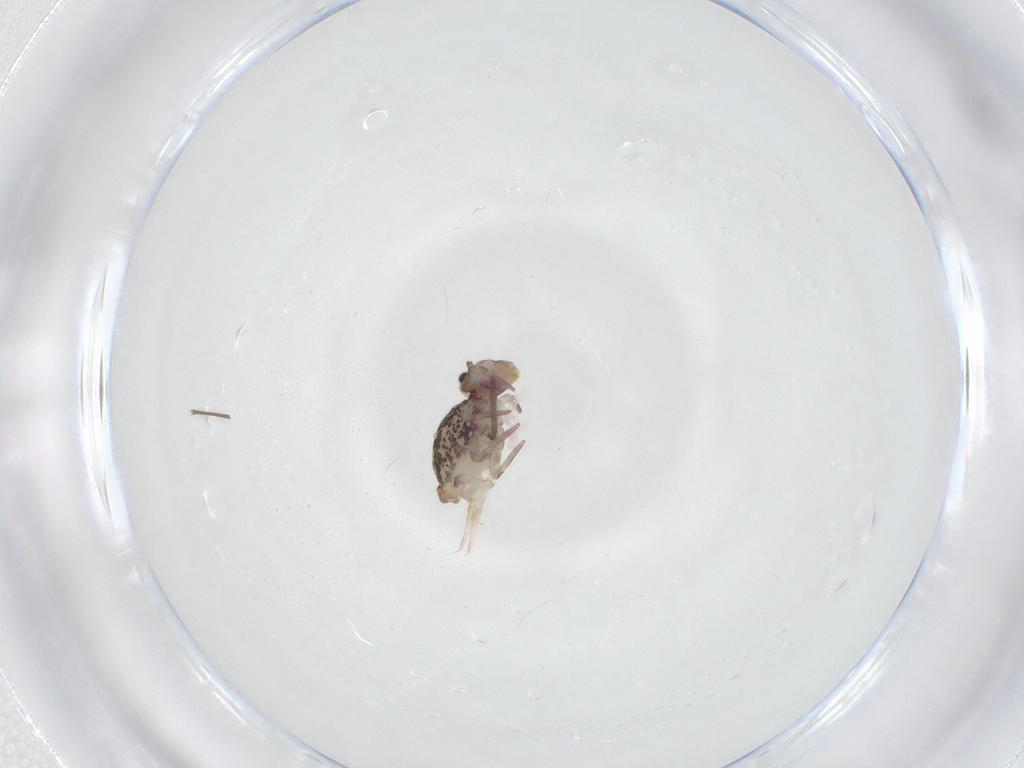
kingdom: Animalia
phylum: Arthropoda
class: Collembola
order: Symphypleona
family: Dicyrtomidae
